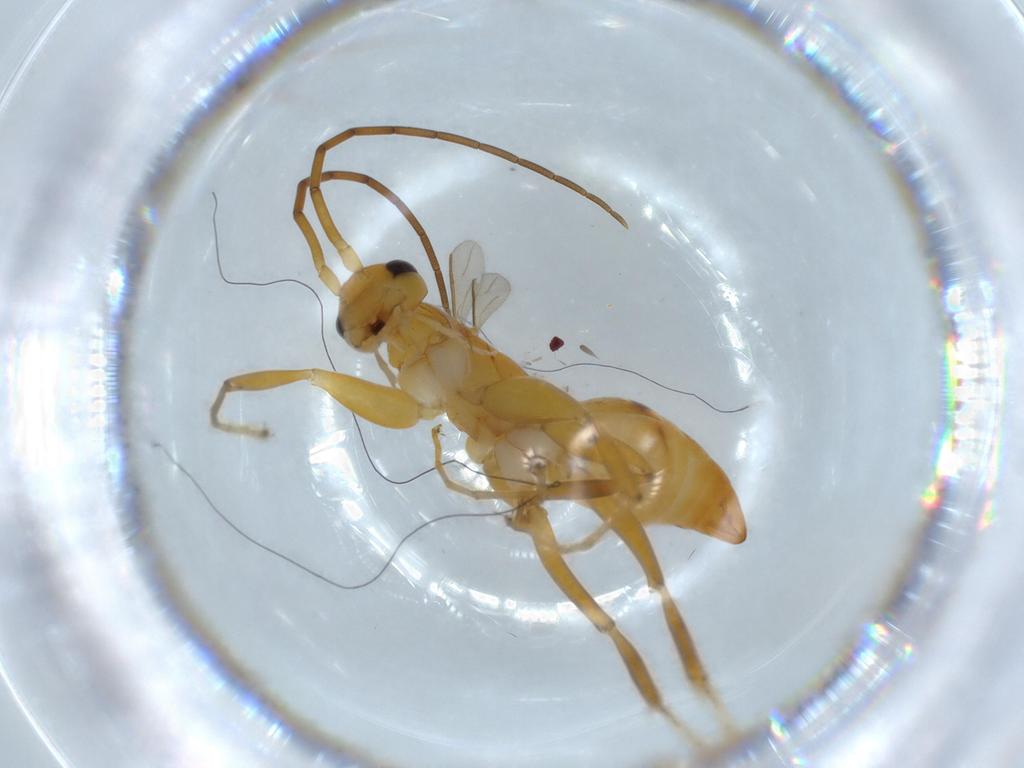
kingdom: Animalia
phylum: Arthropoda
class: Insecta
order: Hymenoptera
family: Rhopalosomatidae
